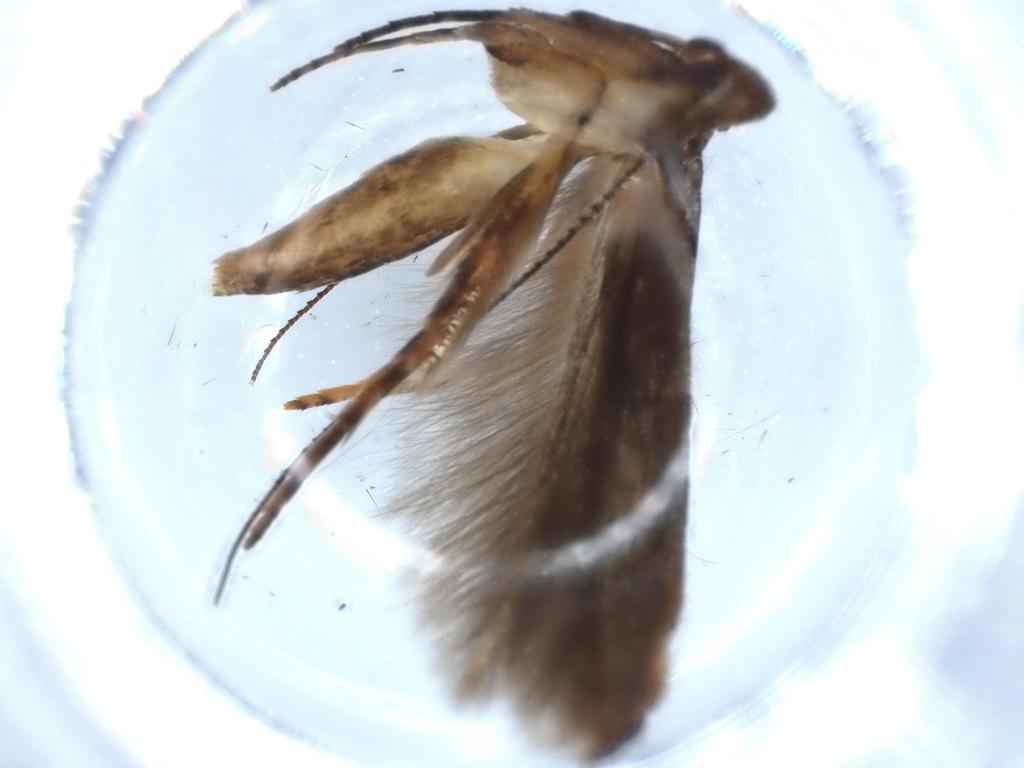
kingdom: Animalia
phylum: Arthropoda
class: Insecta
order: Lepidoptera
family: Heliodinidae
